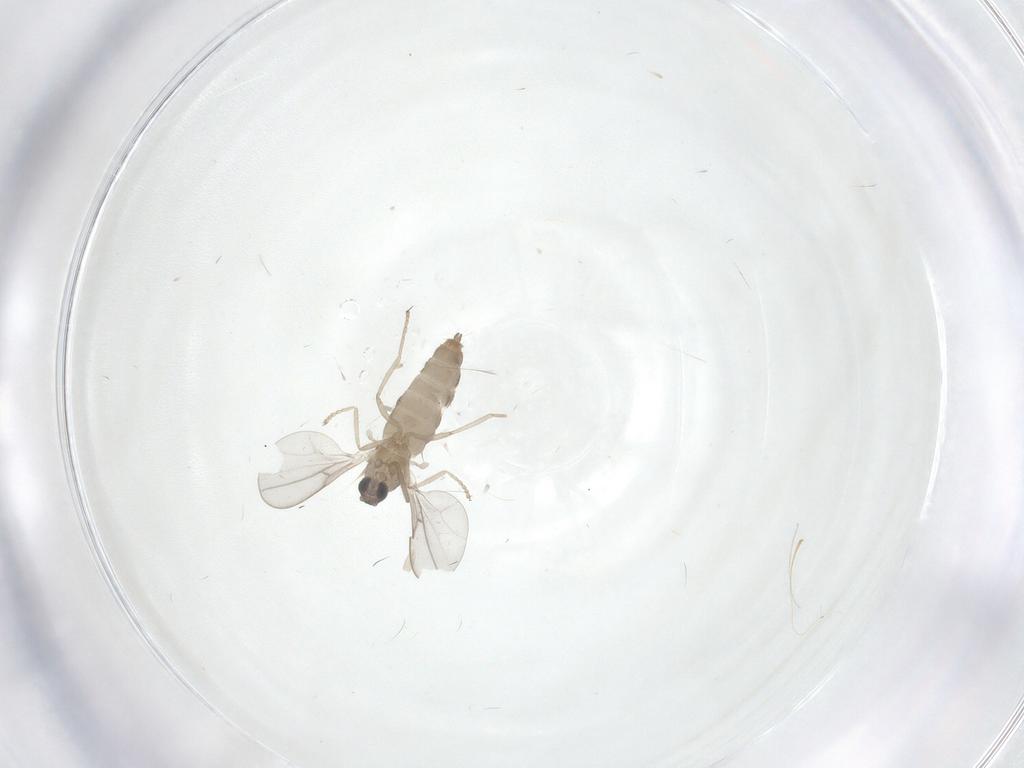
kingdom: Animalia
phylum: Arthropoda
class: Insecta
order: Diptera
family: Cecidomyiidae
